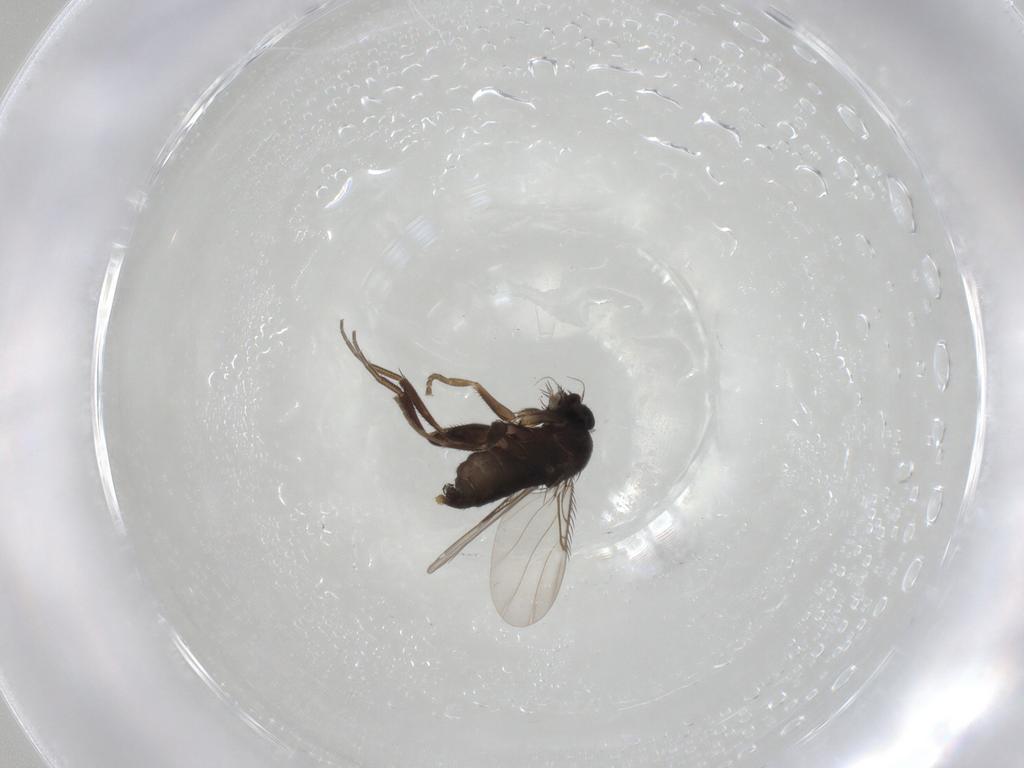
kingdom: Animalia
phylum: Arthropoda
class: Insecta
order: Diptera
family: Phoridae
